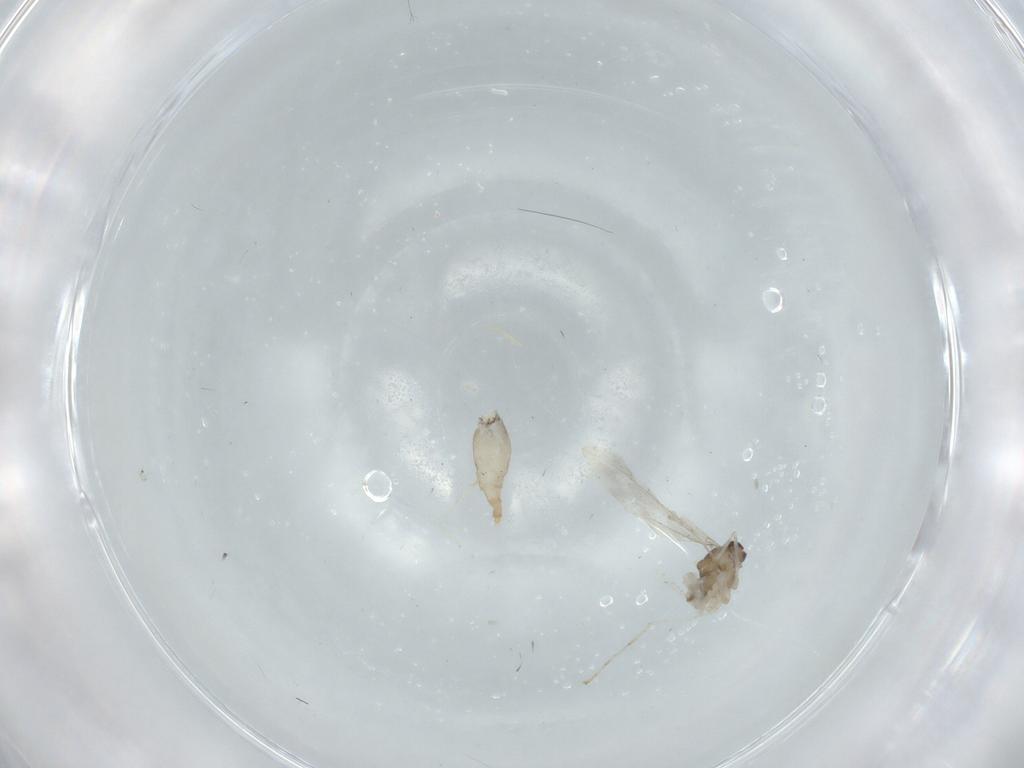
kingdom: Animalia
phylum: Arthropoda
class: Insecta
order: Diptera
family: Cecidomyiidae
